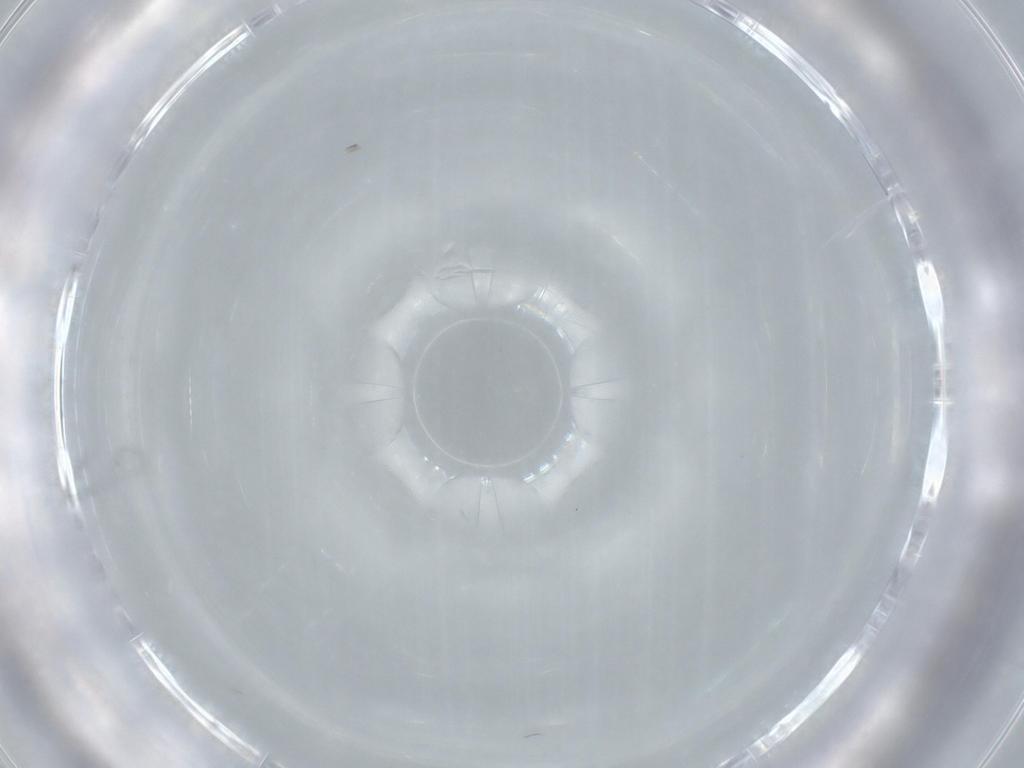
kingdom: Animalia
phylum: Arthropoda
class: Insecta
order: Diptera
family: Cecidomyiidae
